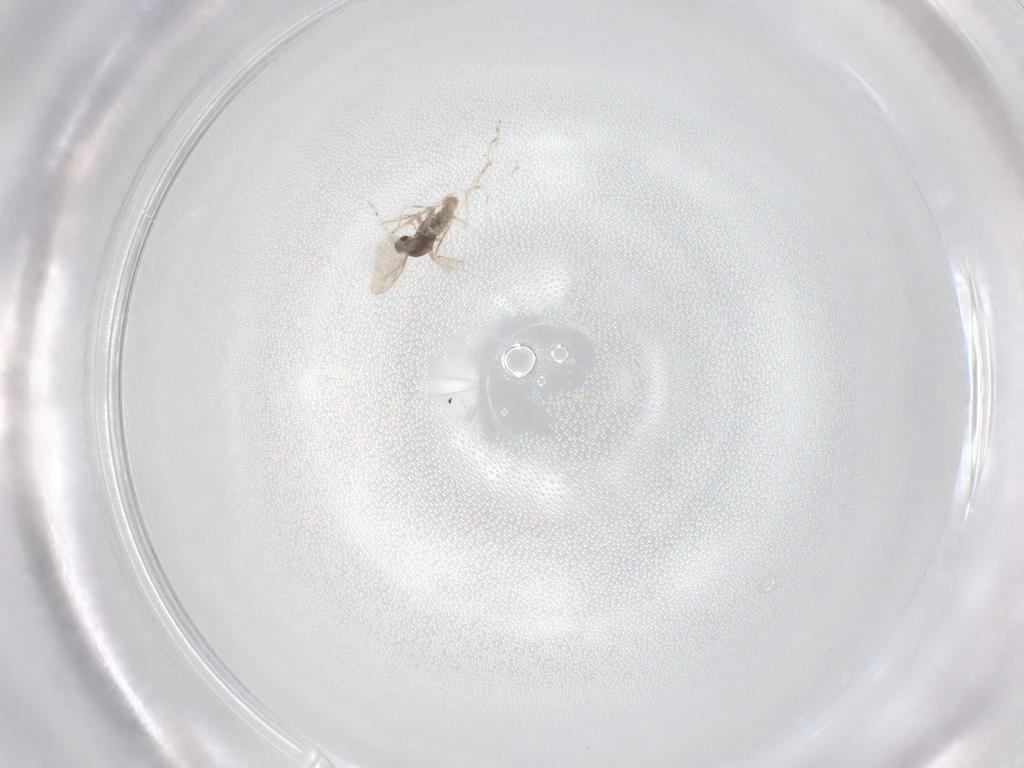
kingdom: Animalia
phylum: Arthropoda
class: Insecta
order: Diptera
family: Cecidomyiidae
